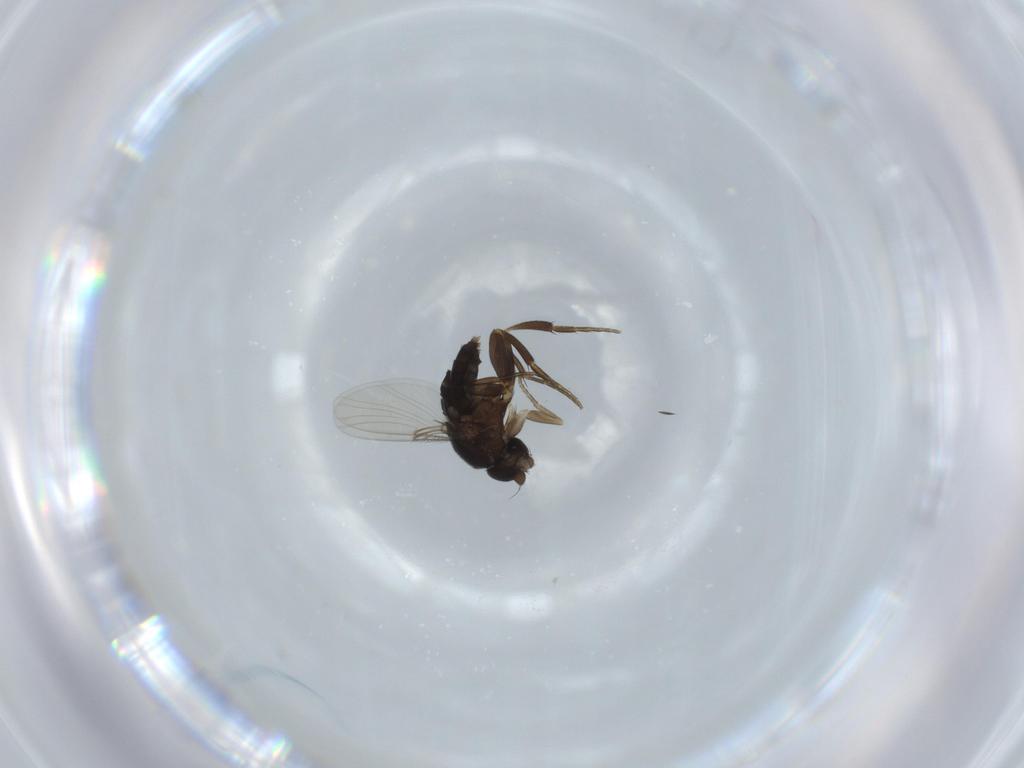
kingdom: Animalia
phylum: Arthropoda
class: Insecta
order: Diptera
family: Phoridae
